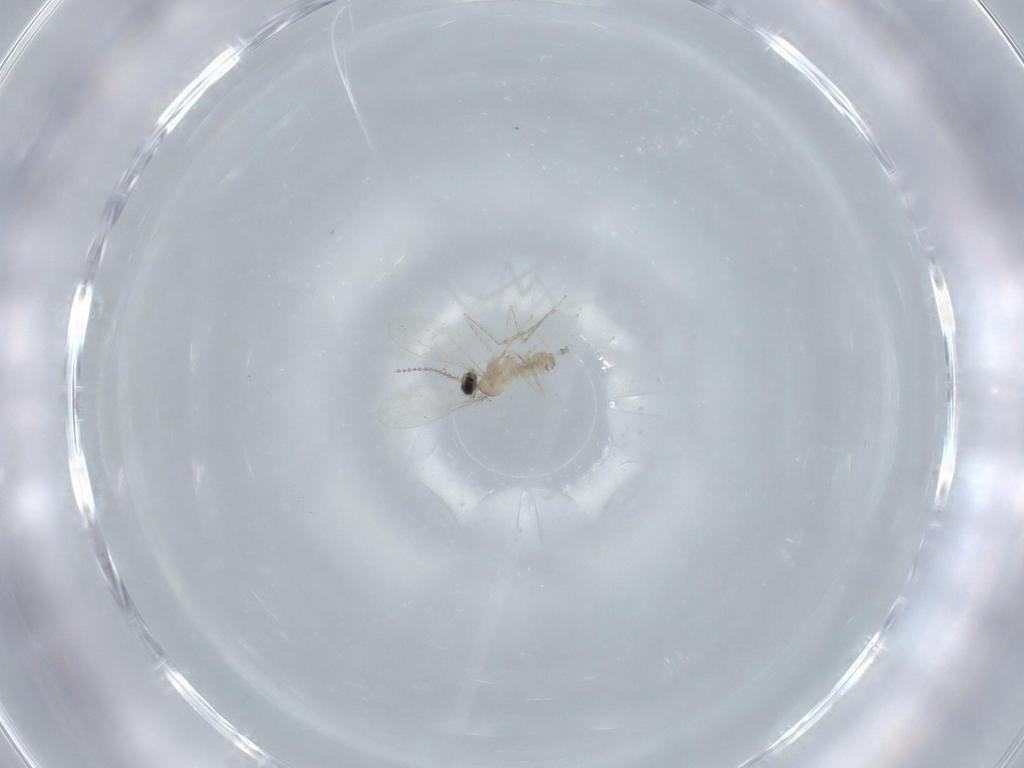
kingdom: Animalia
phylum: Arthropoda
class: Insecta
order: Diptera
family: Cecidomyiidae
